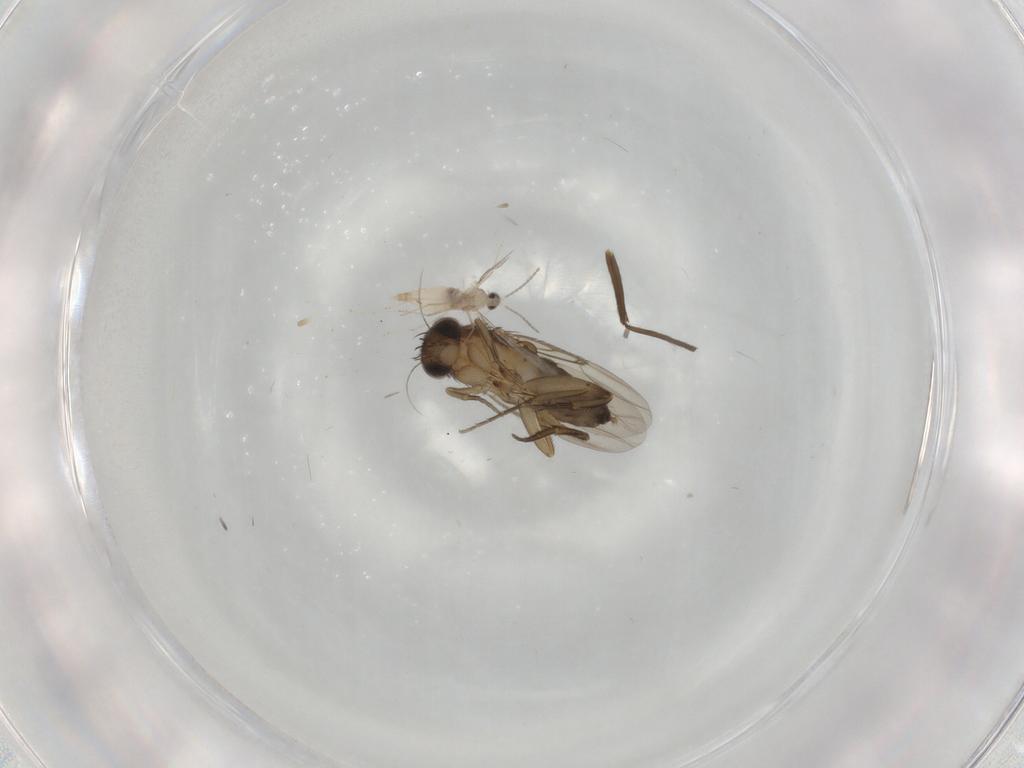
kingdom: Animalia
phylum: Arthropoda
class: Insecta
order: Diptera
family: Phoridae
